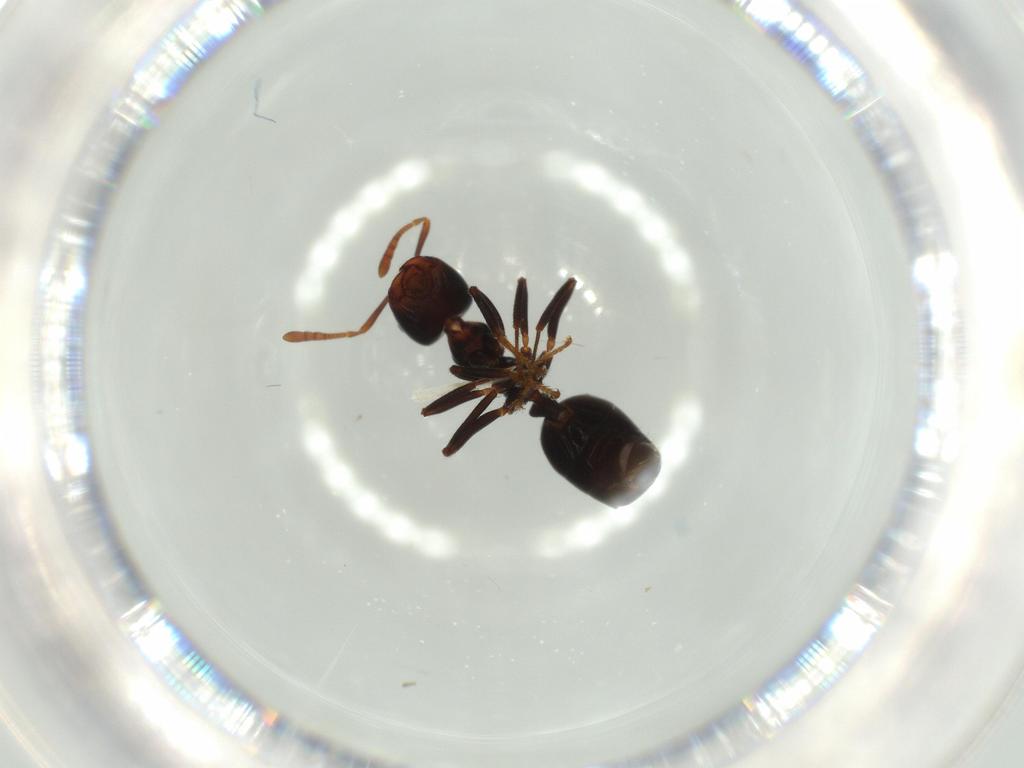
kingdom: Animalia
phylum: Arthropoda
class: Insecta
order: Hymenoptera
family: Formicidae
